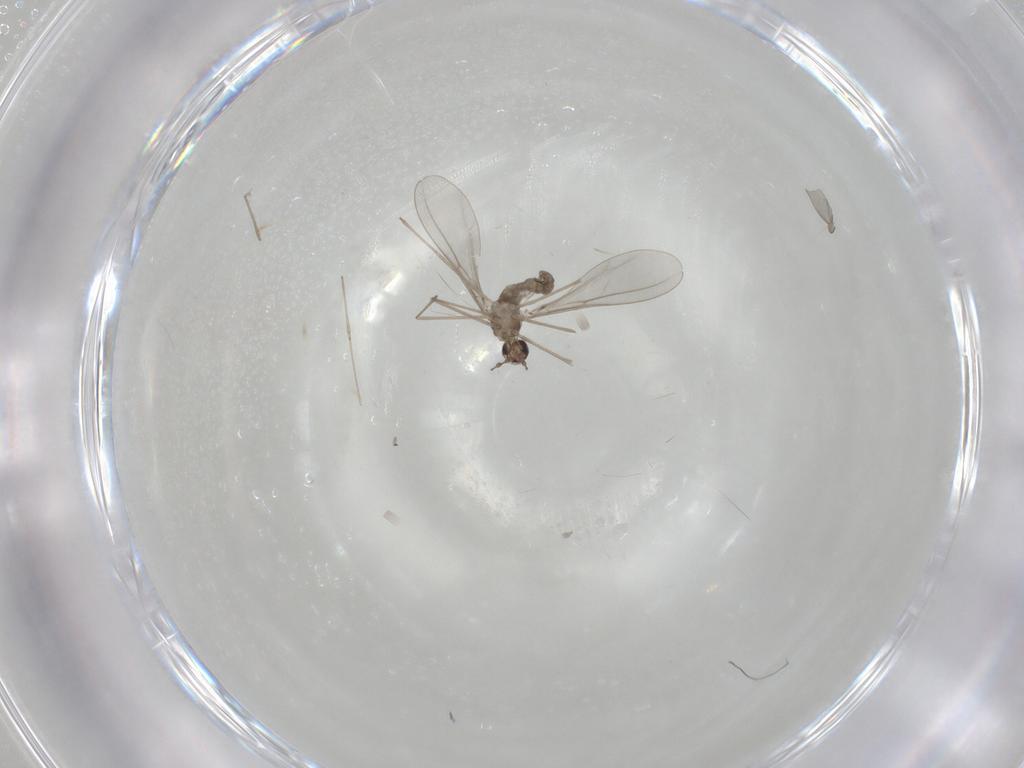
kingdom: Animalia
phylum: Arthropoda
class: Insecta
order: Diptera
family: Cecidomyiidae
